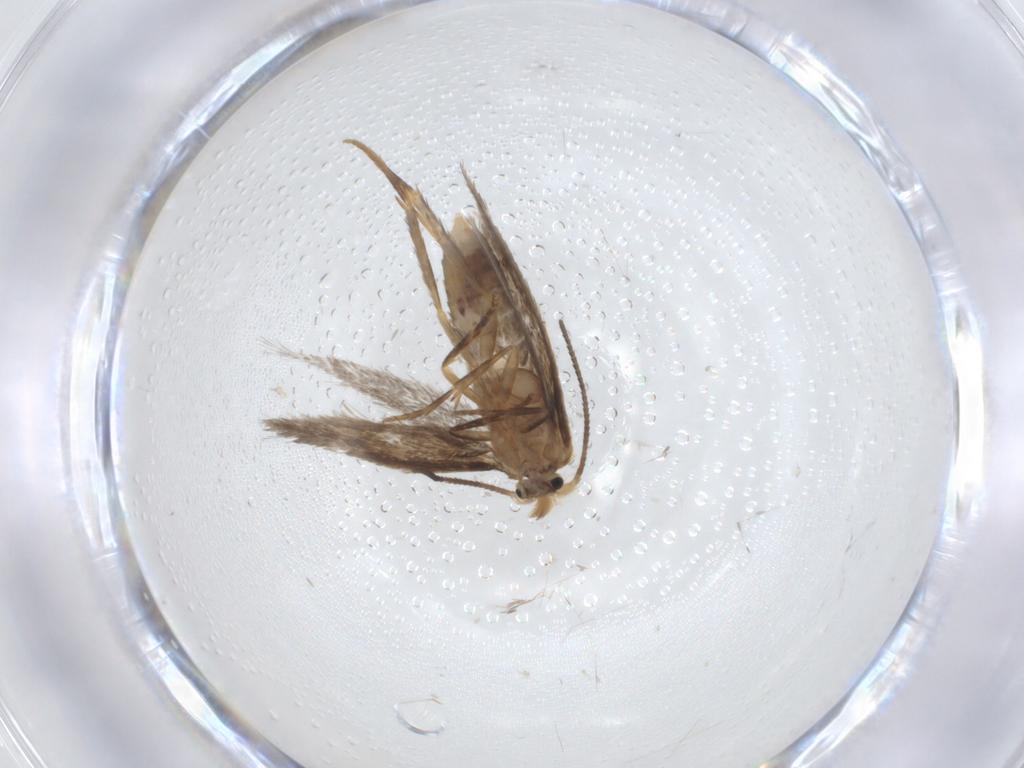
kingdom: Animalia
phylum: Arthropoda
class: Insecta
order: Lepidoptera
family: Nepticulidae
